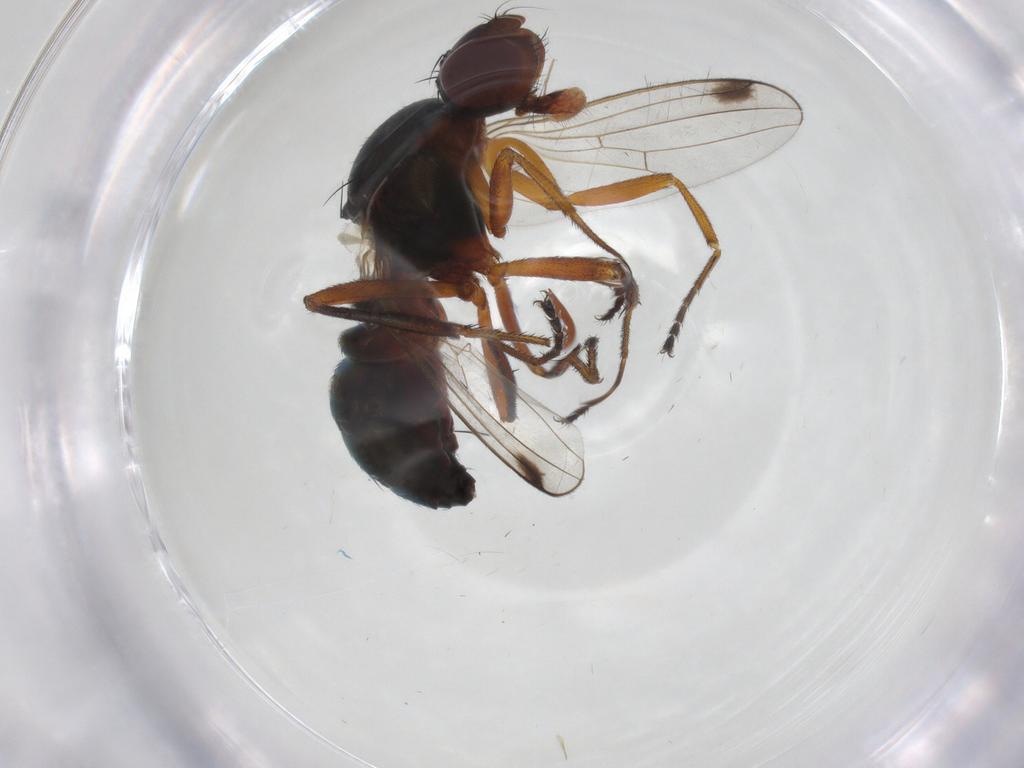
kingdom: Animalia
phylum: Arthropoda
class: Insecta
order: Diptera
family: Sepsidae
